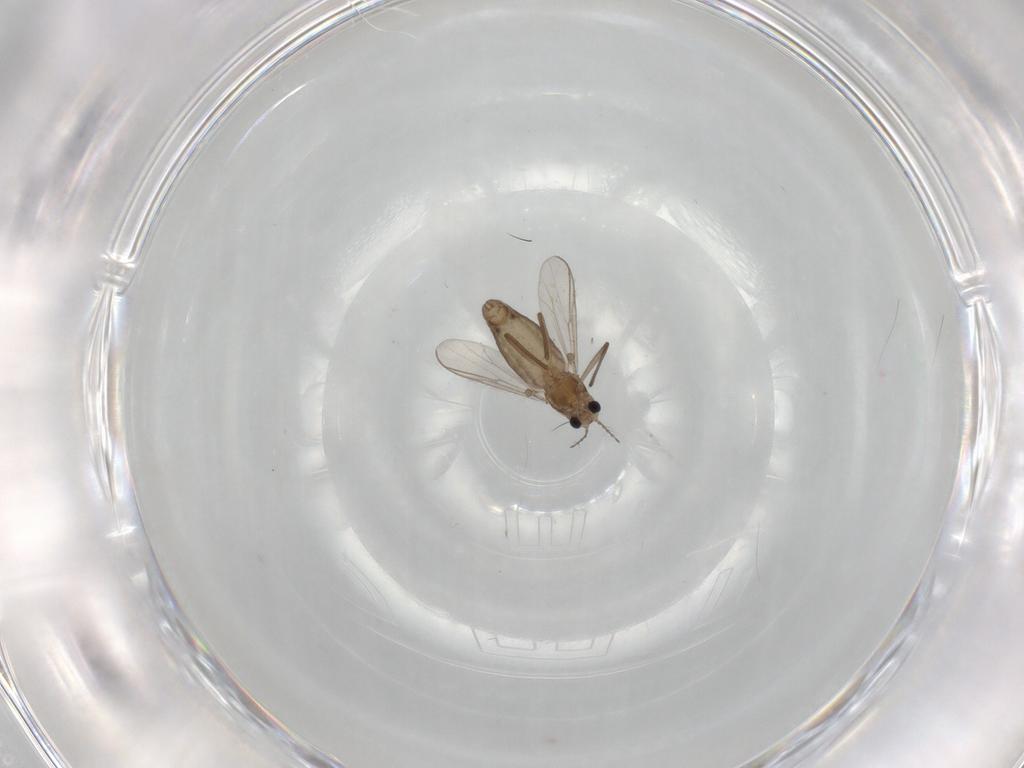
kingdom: Animalia
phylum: Arthropoda
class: Insecta
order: Diptera
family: Chironomidae
